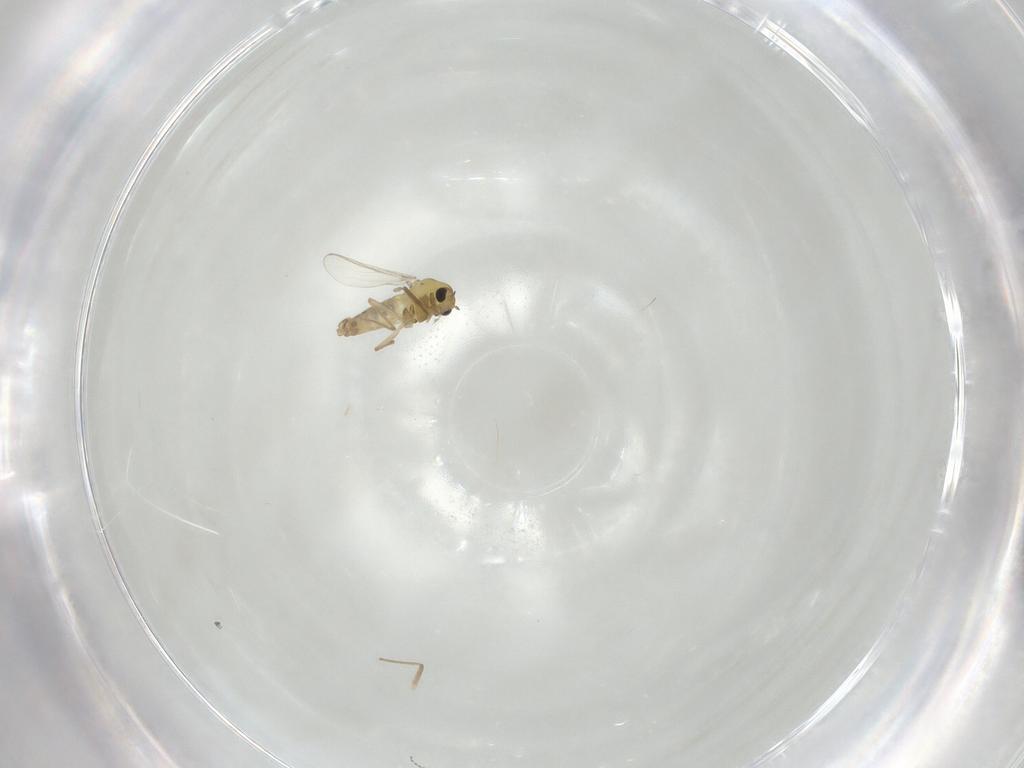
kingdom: Animalia
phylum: Arthropoda
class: Insecta
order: Diptera
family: Chironomidae
